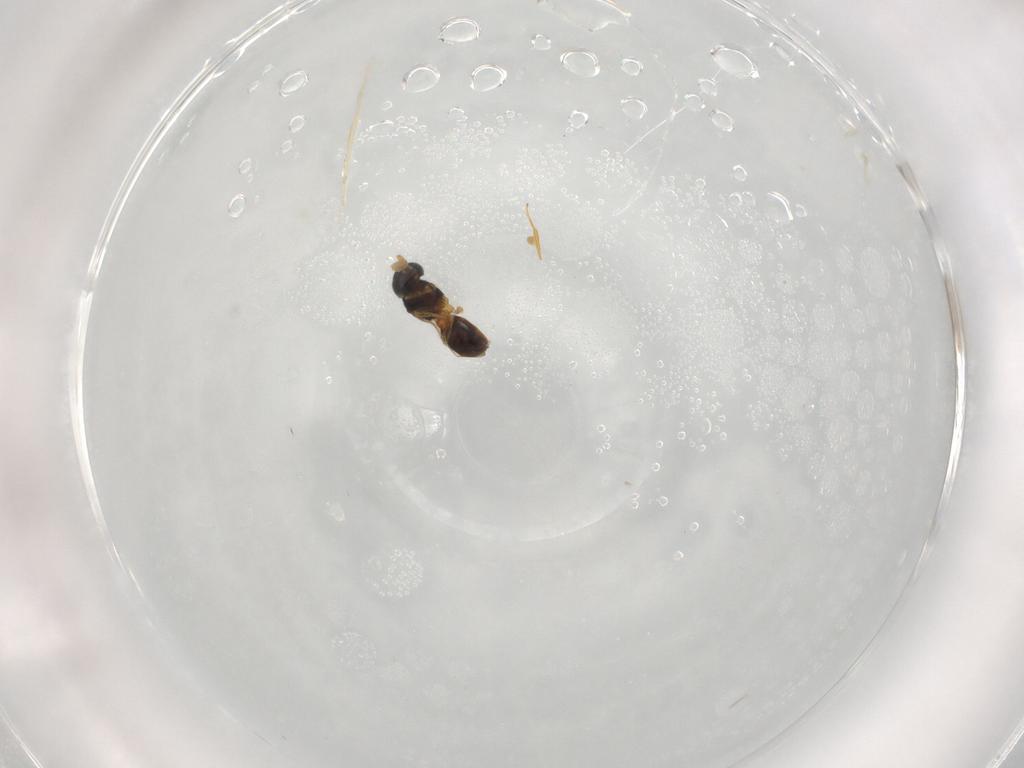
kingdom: Animalia
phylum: Arthropoda
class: Insecta
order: Hymenoptera
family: Scelionidae
